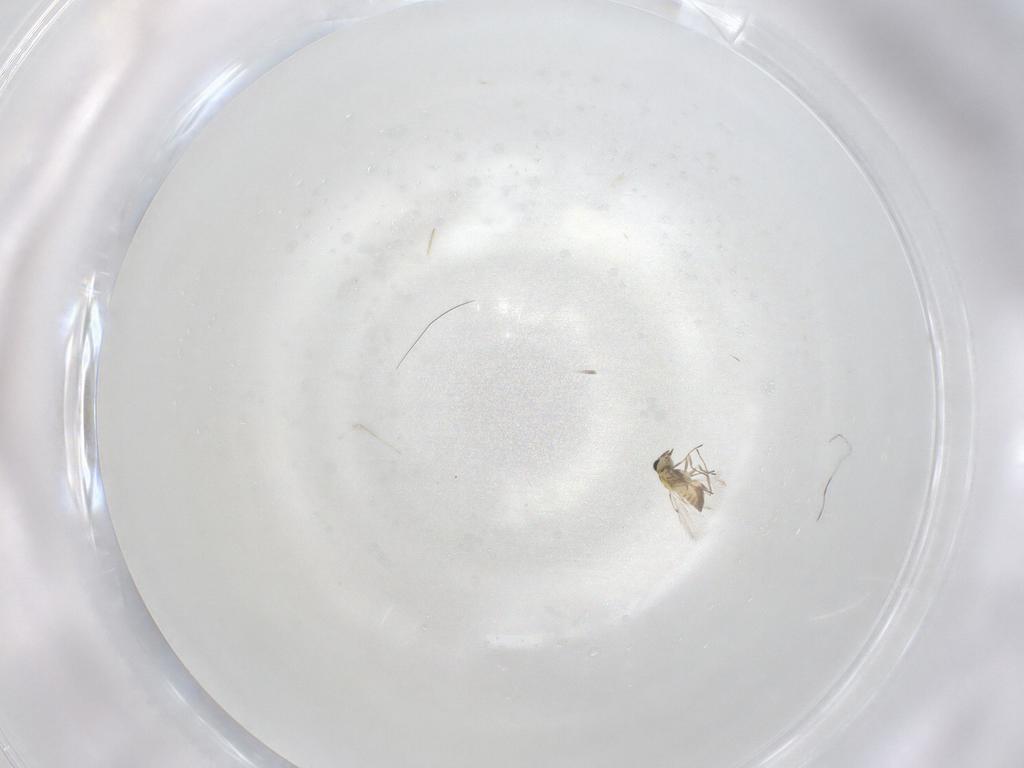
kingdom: Animalia
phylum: Arthropoda
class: Insecta
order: Hymenoptera
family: Trichogrammatidae
